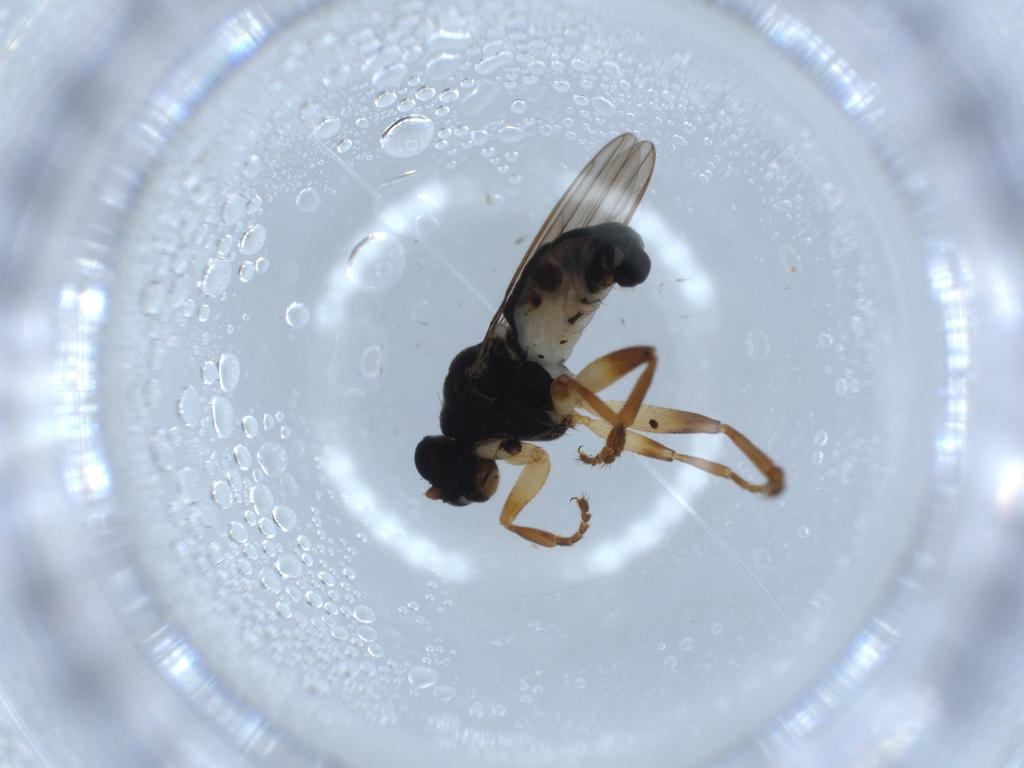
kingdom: Animalia
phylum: Arthropoda
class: Insecta
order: Diptera
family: Sphaeroceridae
